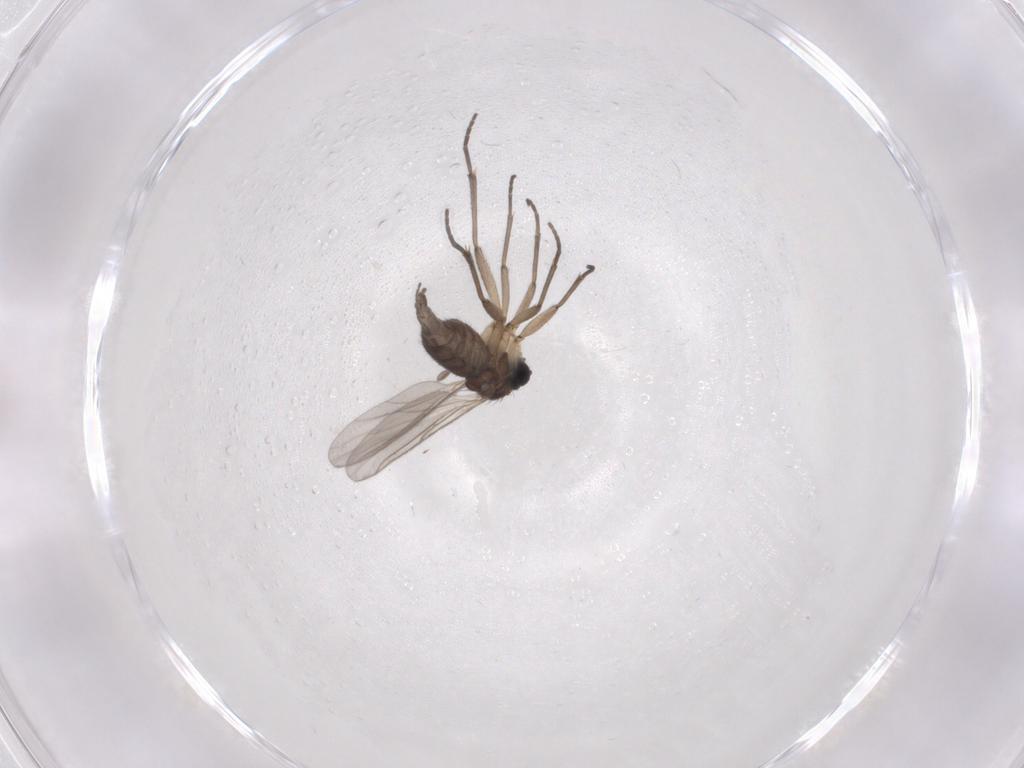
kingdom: Animalia
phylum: Arthropoda
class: Insecta
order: Diptera
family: Sciaridae
